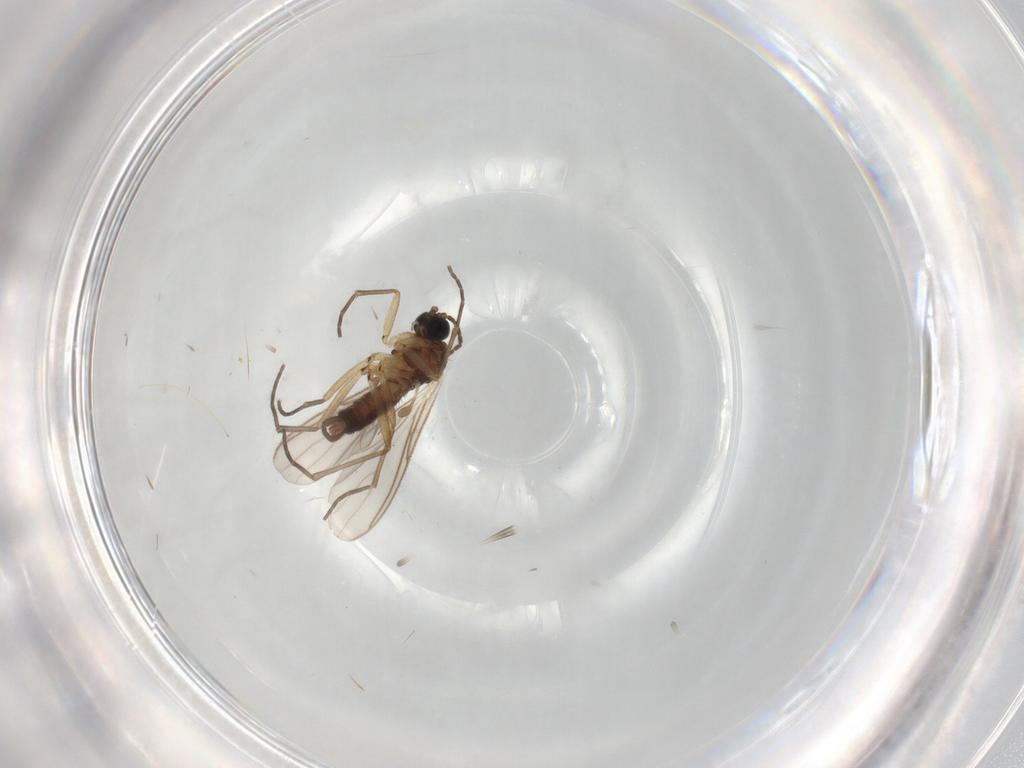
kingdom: Animalia
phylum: Arthropoda
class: Insecta
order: Diptera
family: Sciaridae
